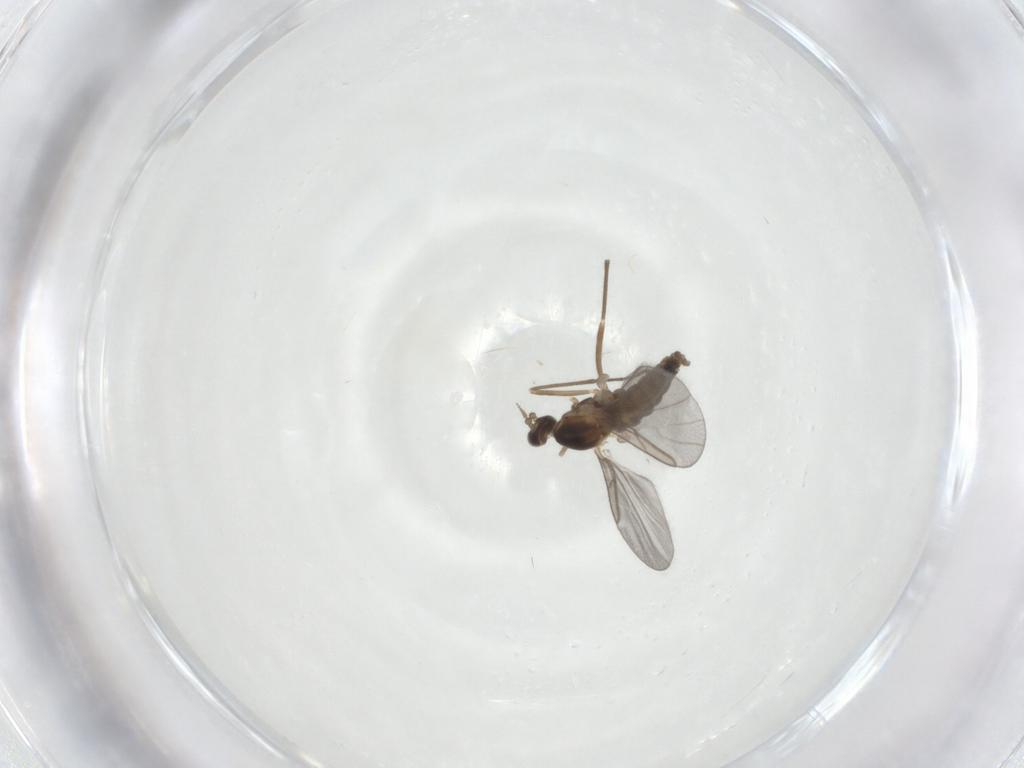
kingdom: Animalia
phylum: Arthropoda
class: Insecta
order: Diptera
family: Cecidomyiidae
